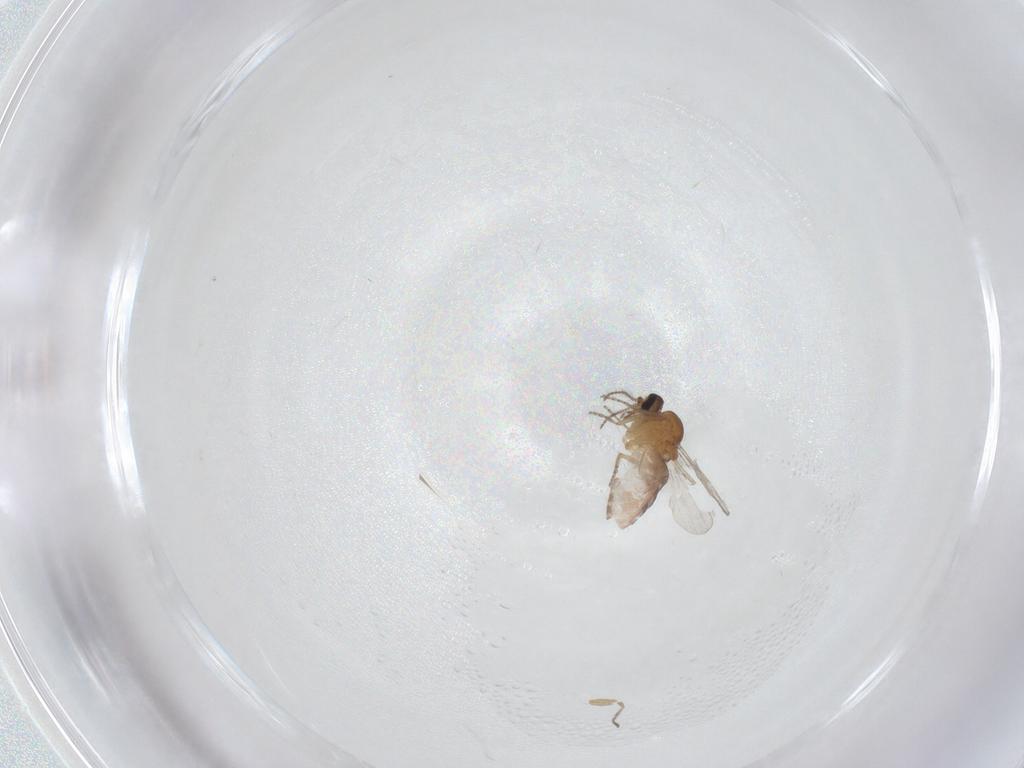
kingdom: Animalia
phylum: Arthropoda
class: Insecta
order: Diptera
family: Ceratopogonidae
